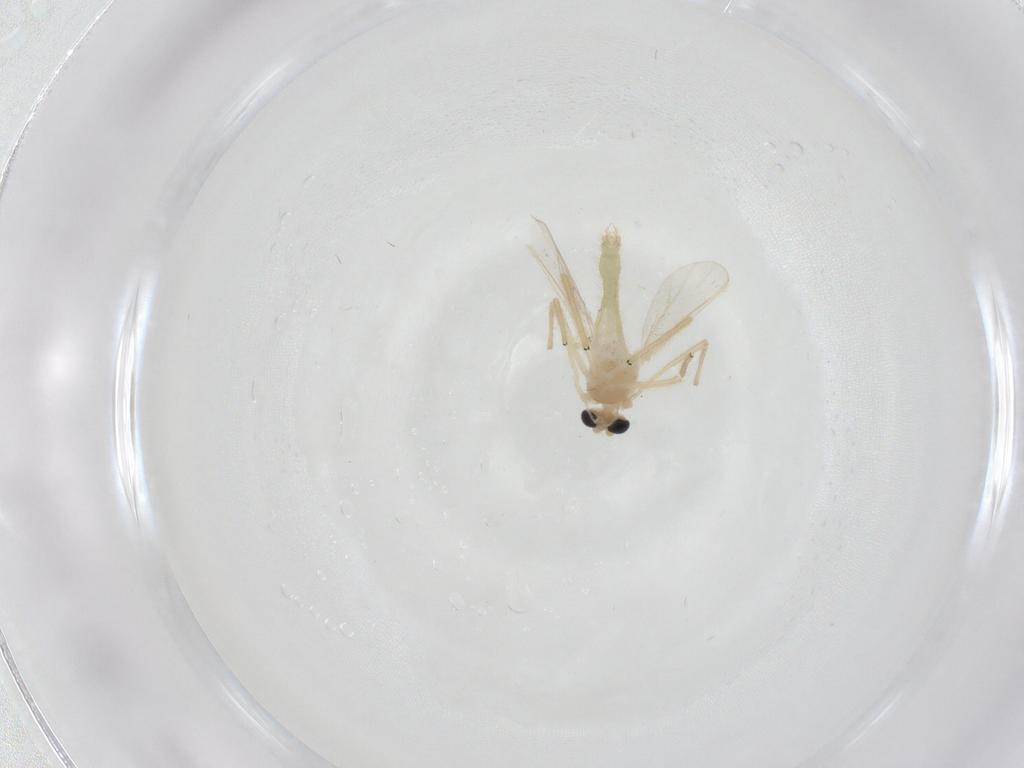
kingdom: Animalia
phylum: Arthropoda
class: Insecta
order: Diptera
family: Chironomidae
